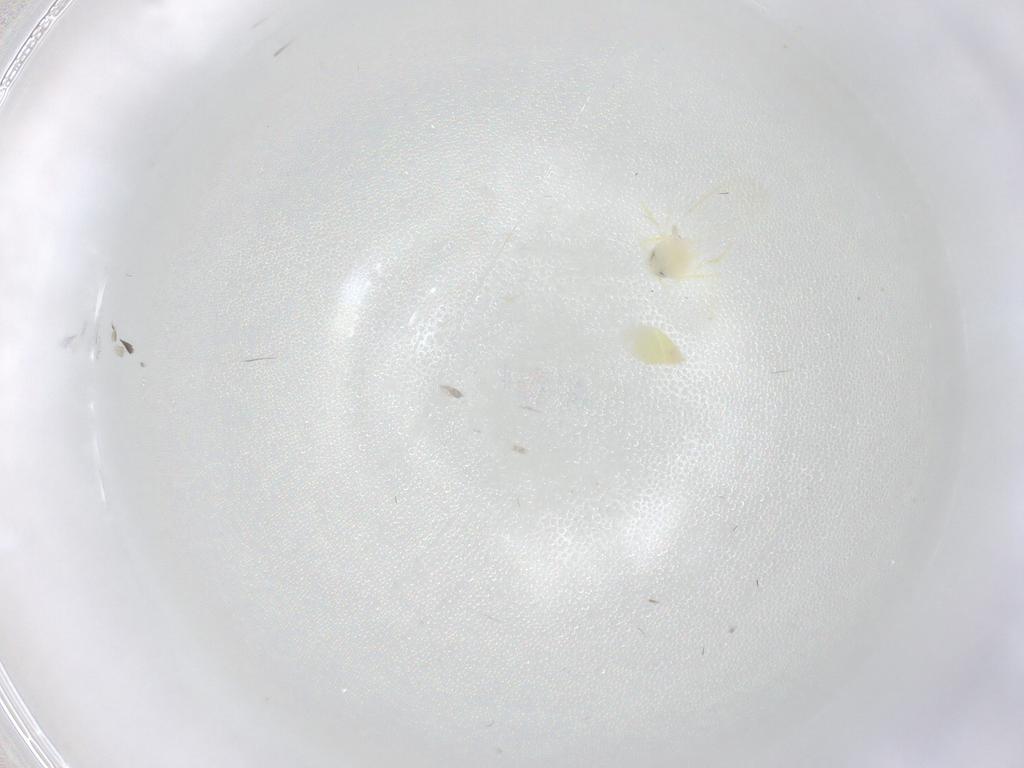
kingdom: Animalia
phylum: Arthropoda
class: Insecta
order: Hemiptera
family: Aleyrodidae
